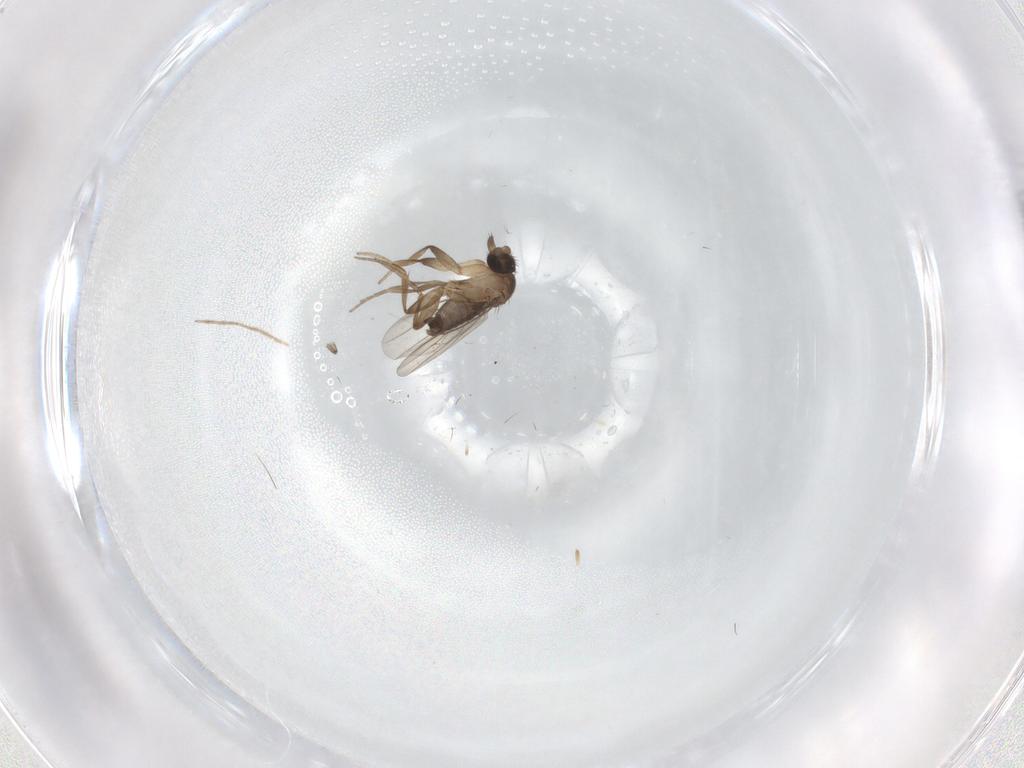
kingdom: Animalia
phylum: Arthropoda
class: Insecta
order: Diptera
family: Chironomidae
